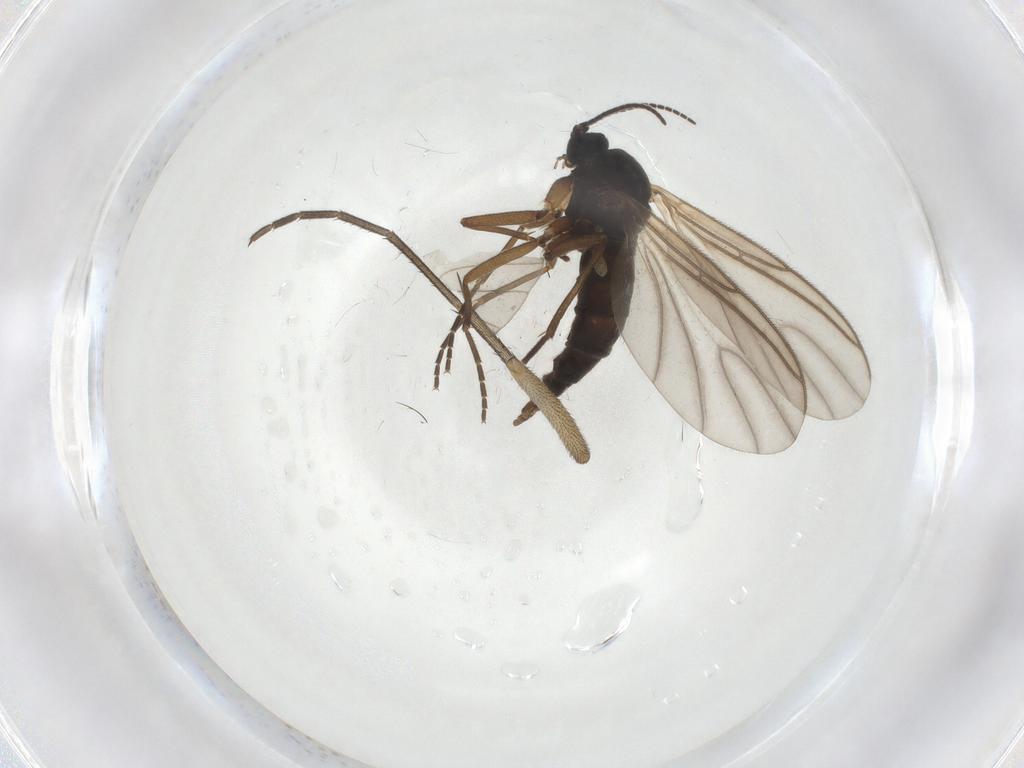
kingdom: Animalia
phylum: Arthropoda
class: Insecta
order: Diptera
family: Sciaridae
